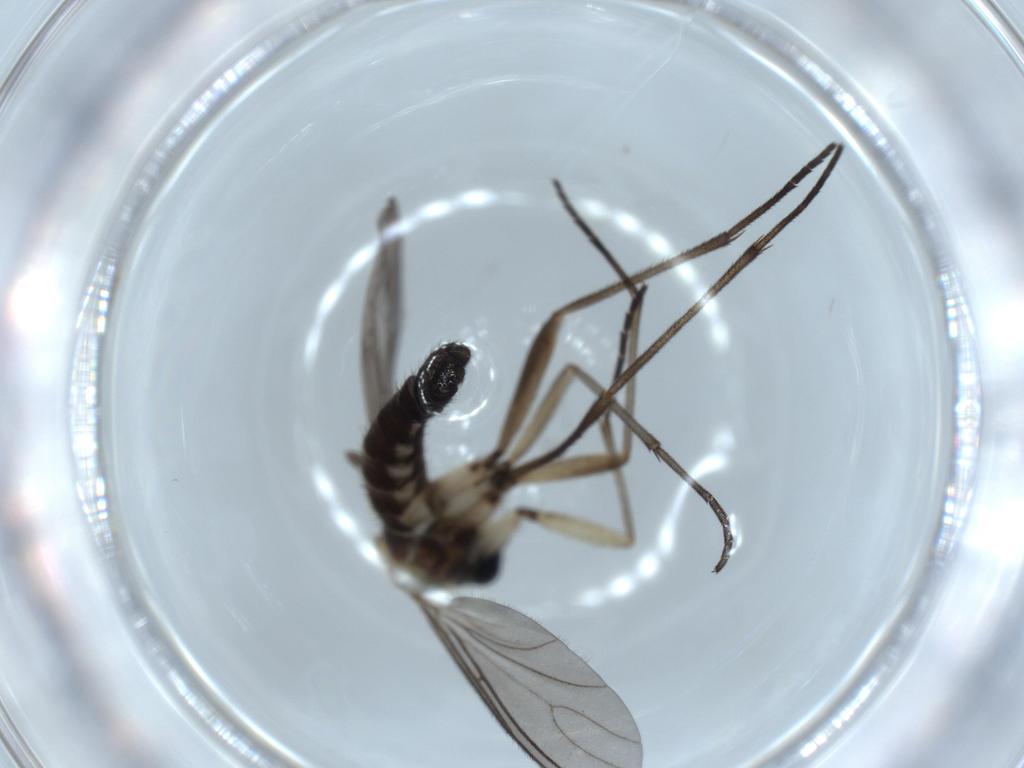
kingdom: Animalia
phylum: Arthropoda
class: Insecta
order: Diptera
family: Sciaridae
